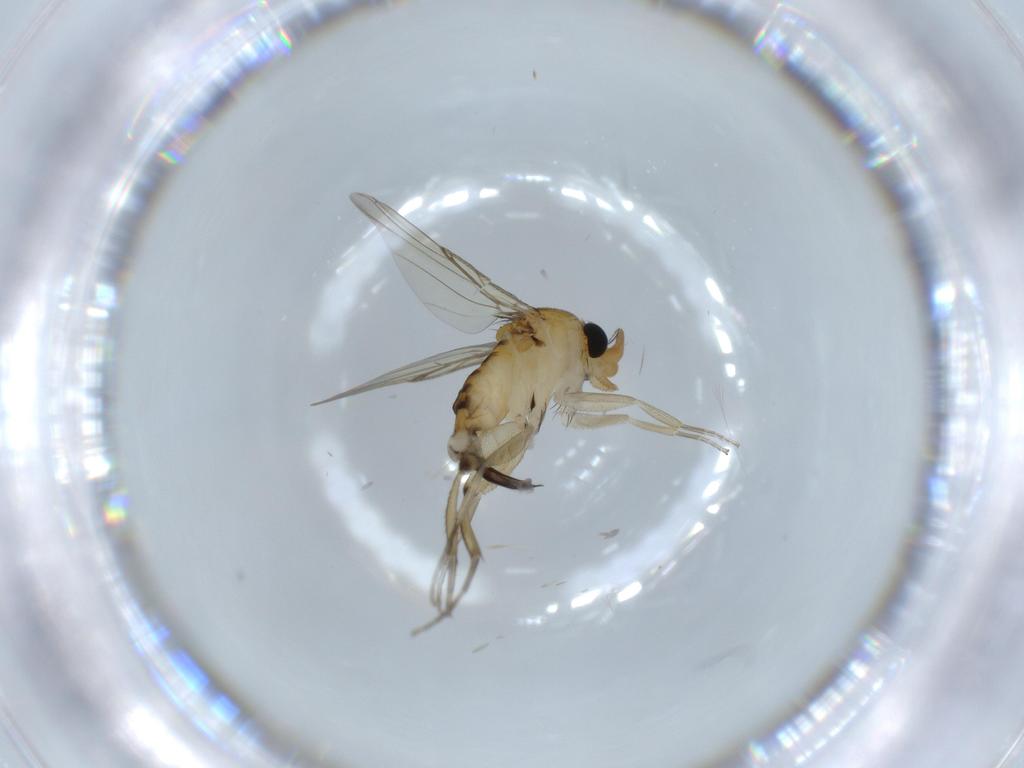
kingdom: Animalia
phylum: Arthropoda
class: Insecta
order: Diptera
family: Phoridae
